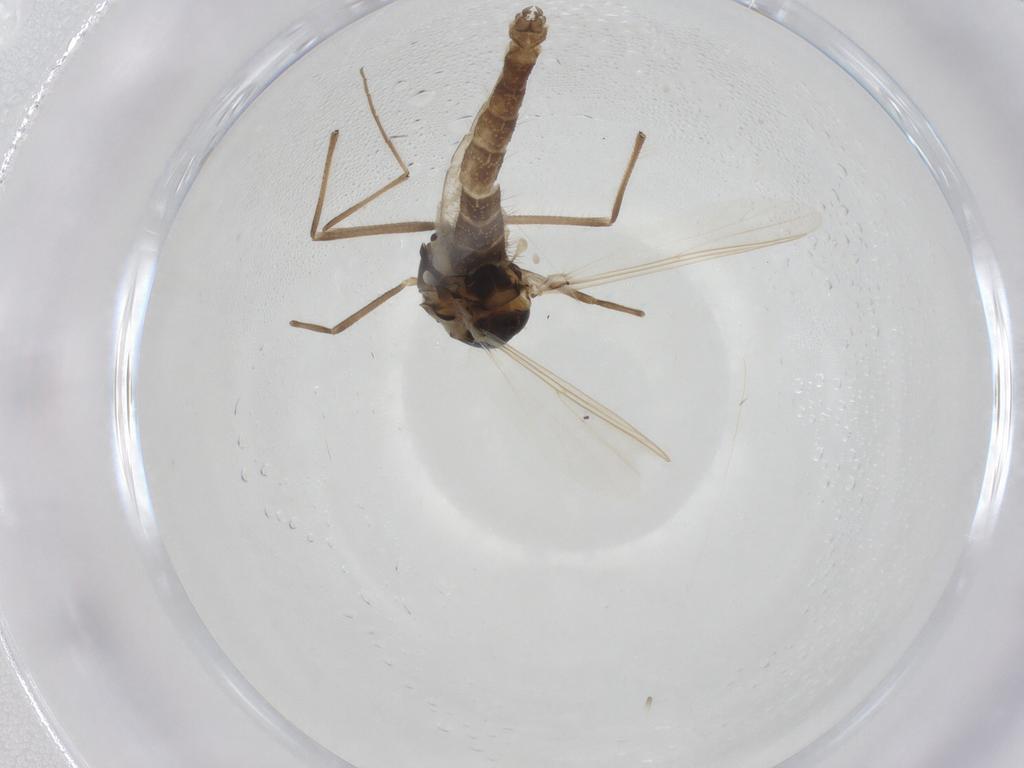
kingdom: Animalia
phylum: Arthropoda
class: Insecta
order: Diptera
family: Chironomidae
